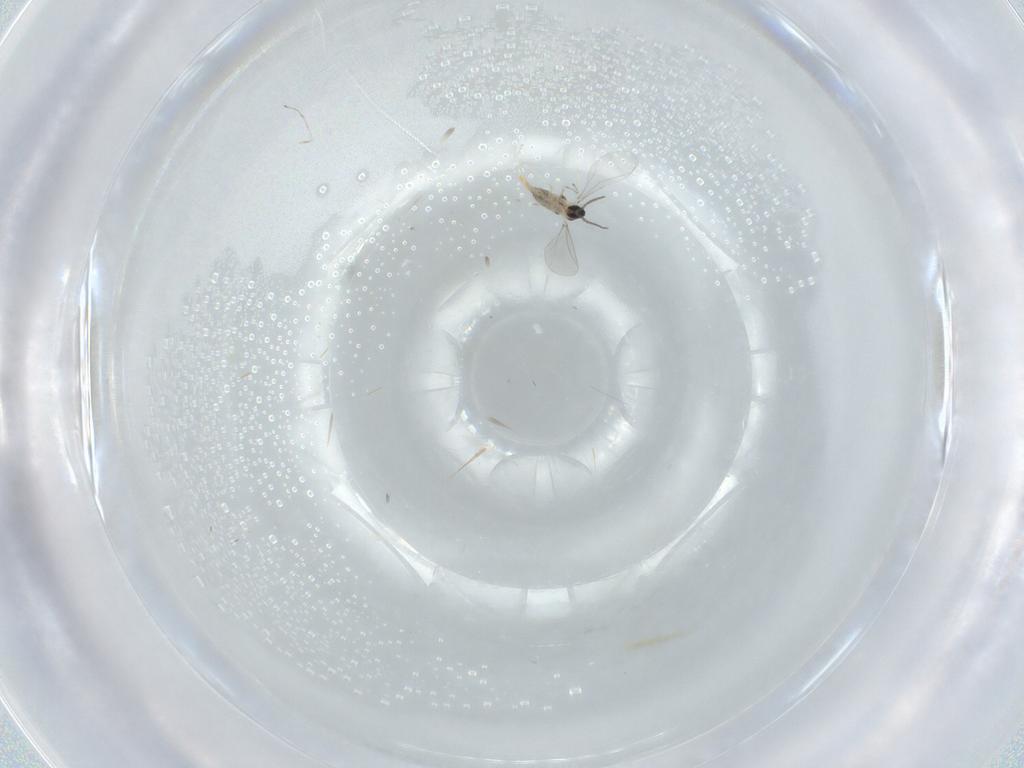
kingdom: Animalia
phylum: Arthropoda
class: Insecta
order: Diptera
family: Cecidomyiidae
